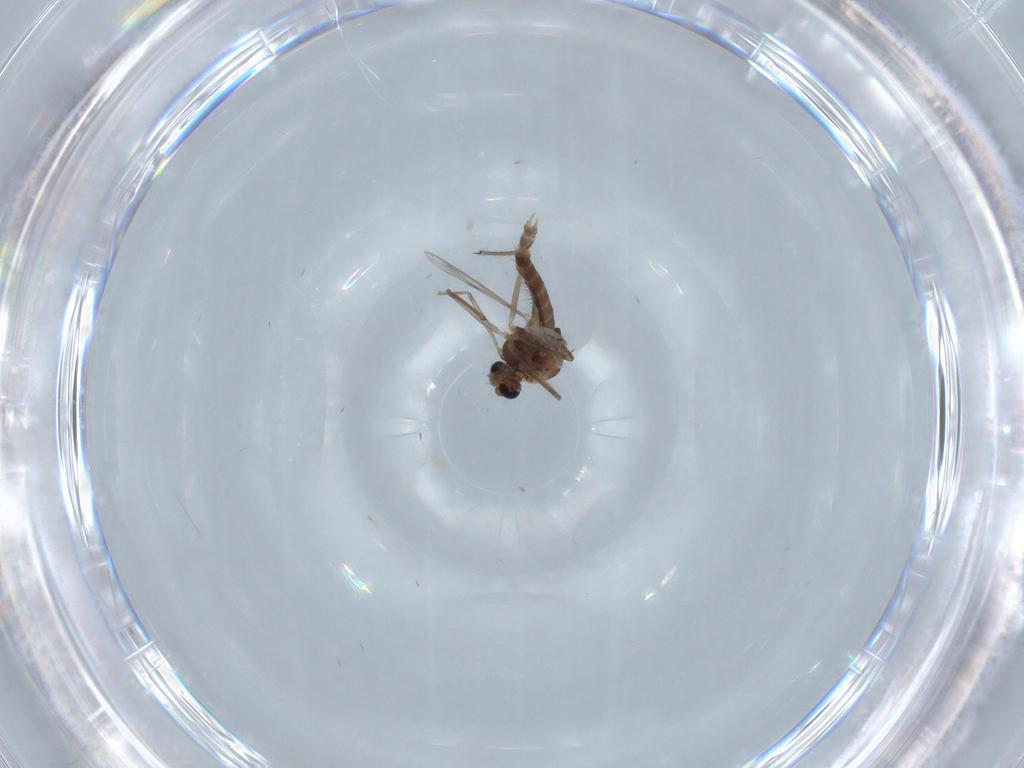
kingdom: Animalia
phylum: Arthropoda
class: Insecta
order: Diptera
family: Chironomidae
